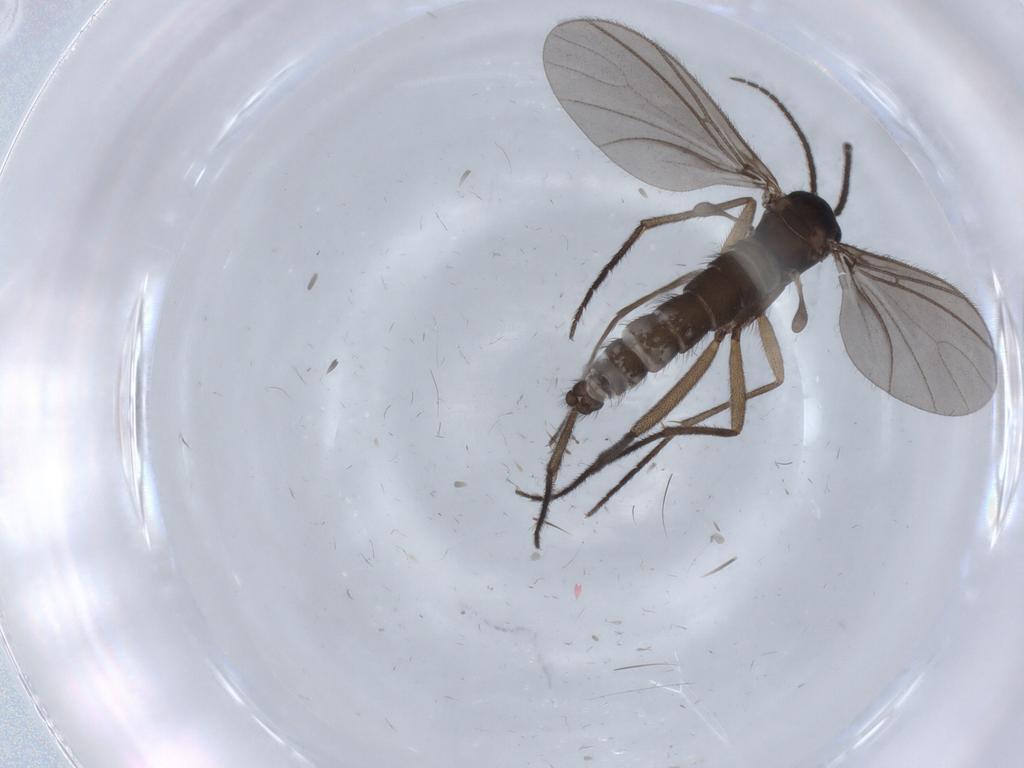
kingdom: Animalia
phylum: Arthropoda
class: Insecta
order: Diptera
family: Sciaridae
